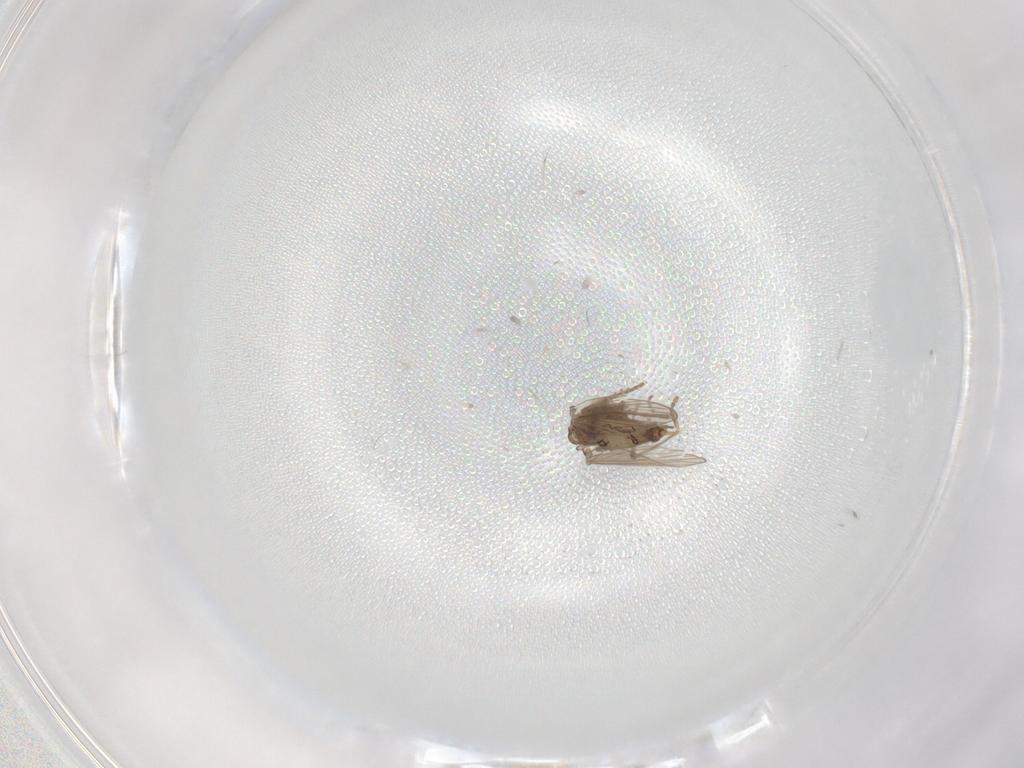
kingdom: Animalia
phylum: Arthropoda
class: Insecta
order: Diptera
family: Psychodidae
